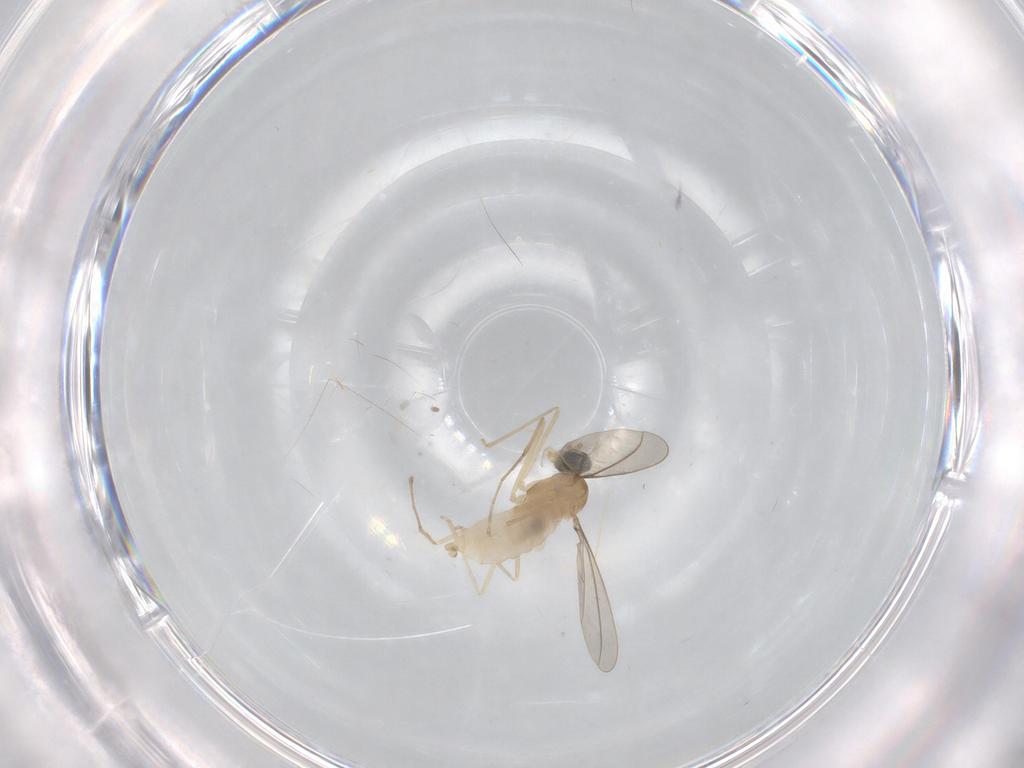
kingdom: Animalia
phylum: Arthropoda
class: Insecta
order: Diptera
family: Cecidomyiidae
